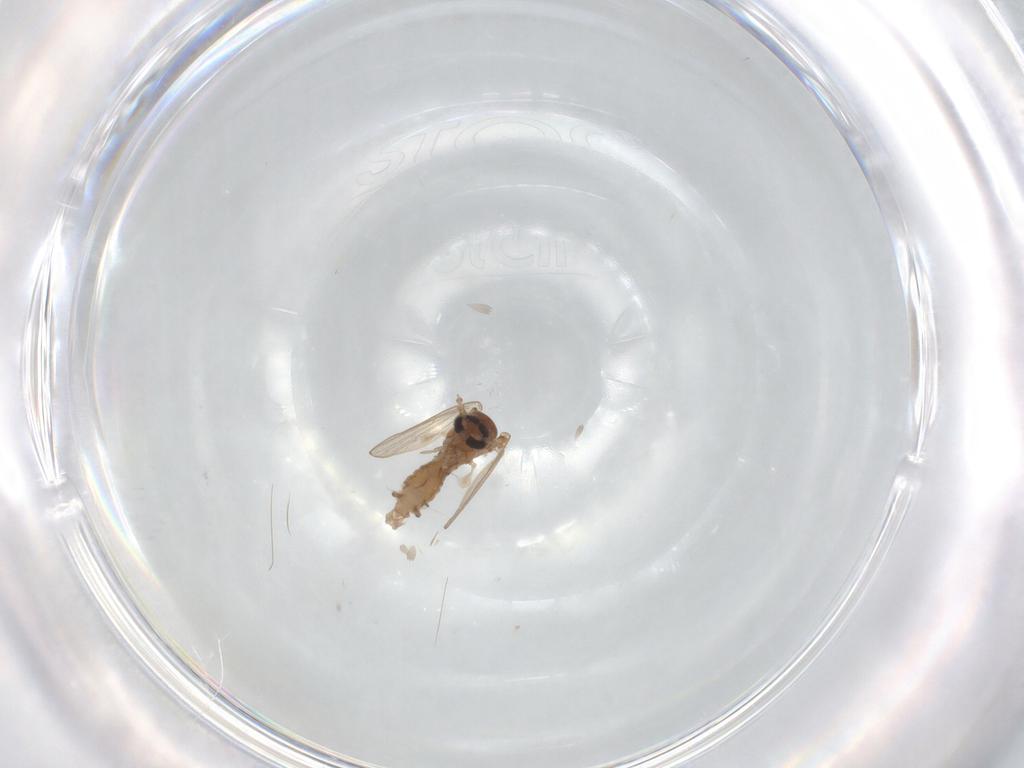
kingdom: Animalia
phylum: Arthropoda
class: Insecta
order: Diptera
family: Psychodidae
